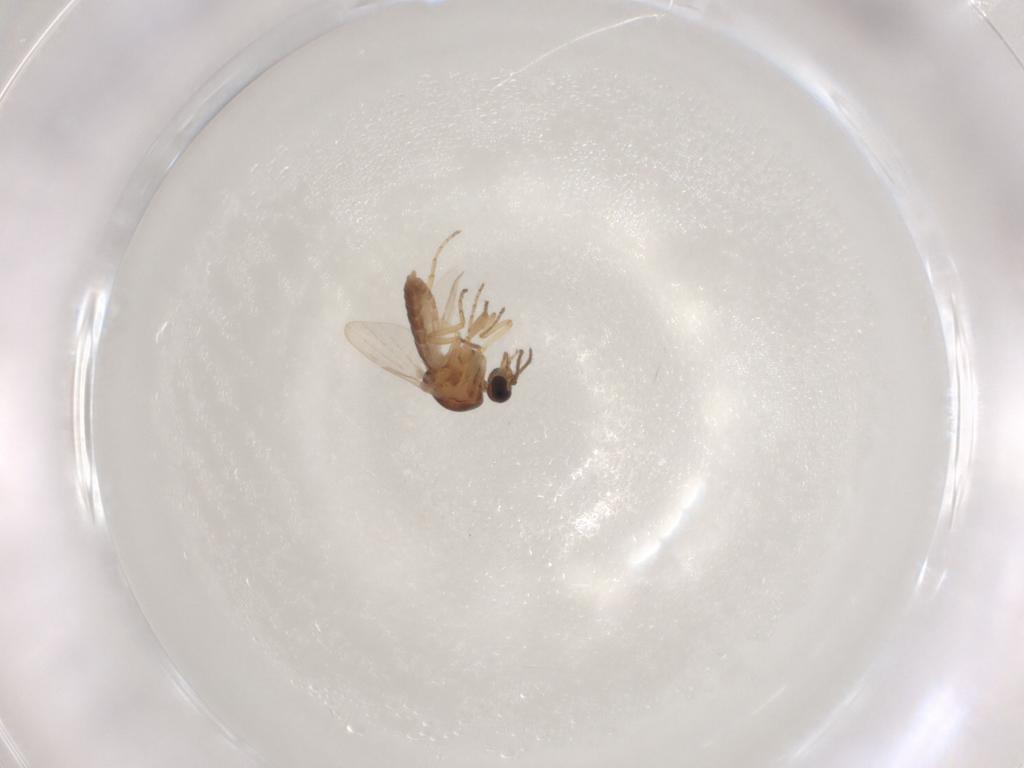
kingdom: Animalia
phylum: Arthropoda
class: Insecta
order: Diptera
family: Ceratopogonidae
